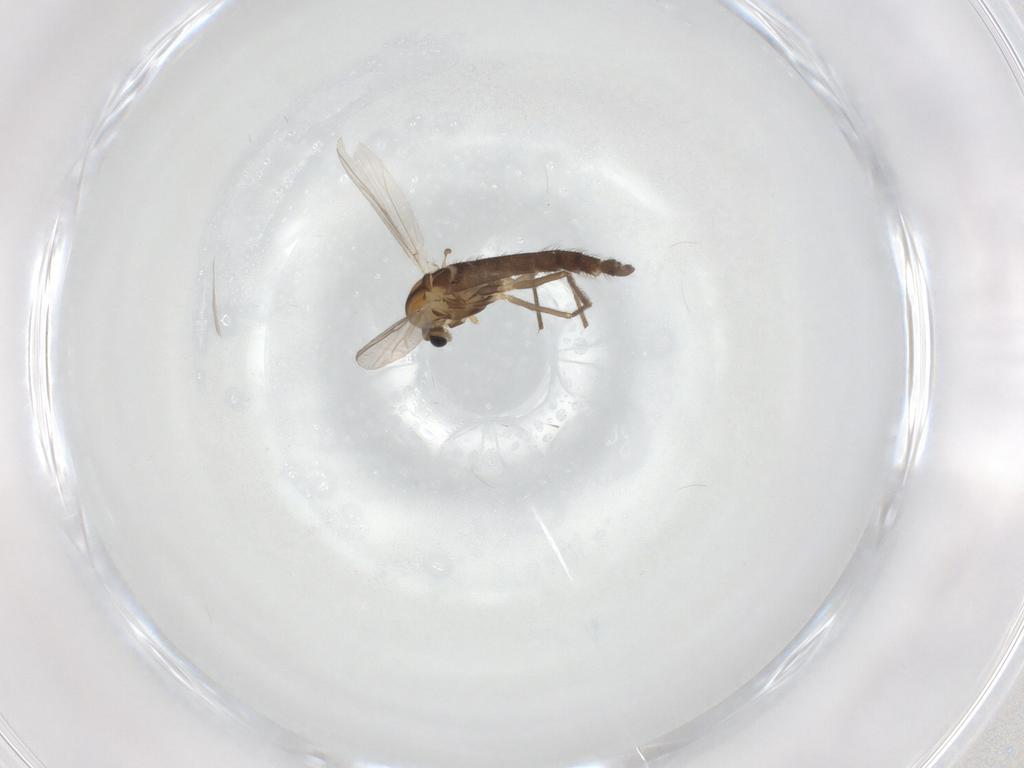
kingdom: Animalia
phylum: Arthropoda
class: Insecta
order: Diptera
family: Chironomidae
